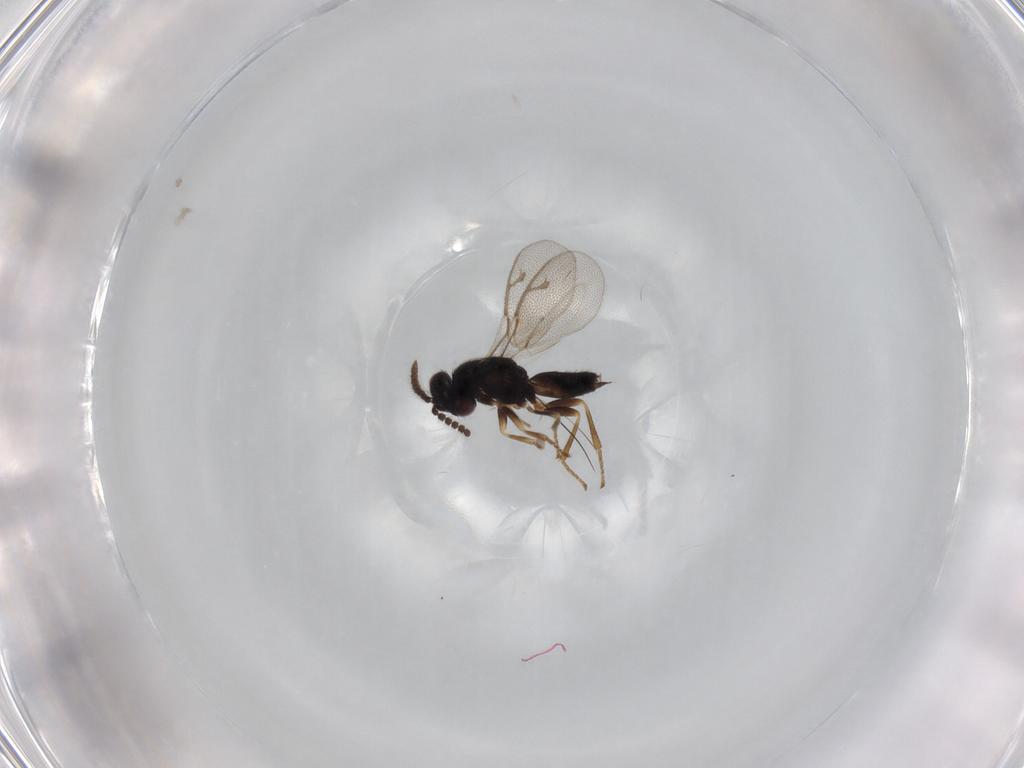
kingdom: Animalia
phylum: Arthropoda
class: Insecta
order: Hymenoptera
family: Pirenidae
